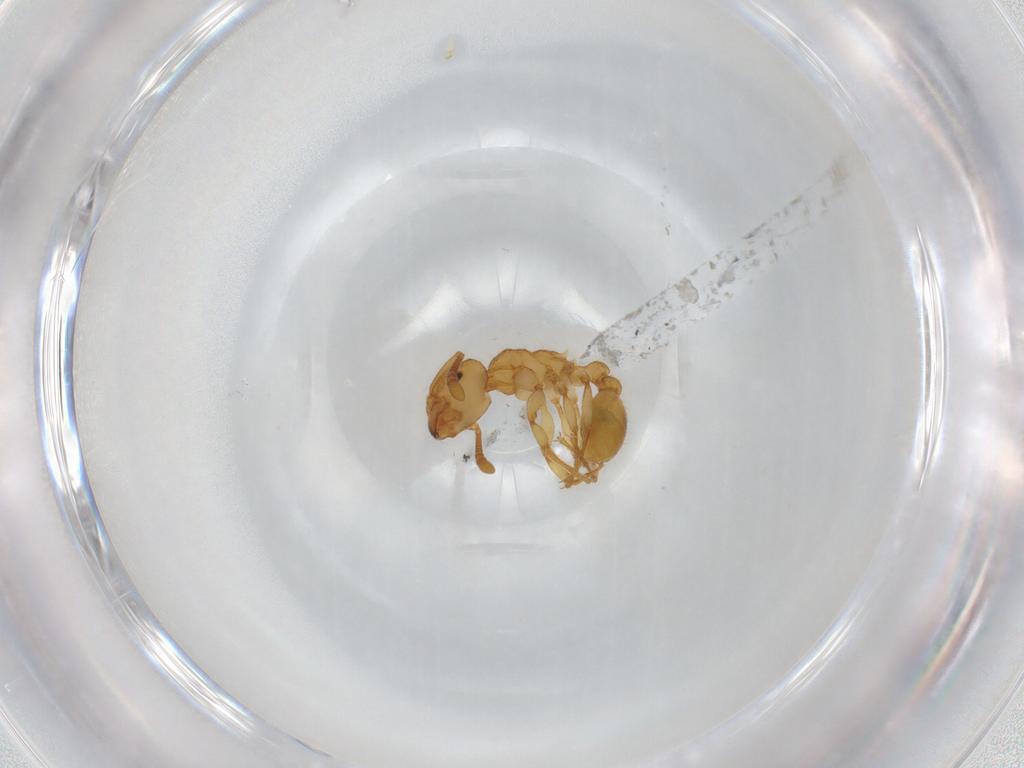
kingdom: Animalia
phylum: Arthropoda
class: Insecta
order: Hymenoptera
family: Formicidae
